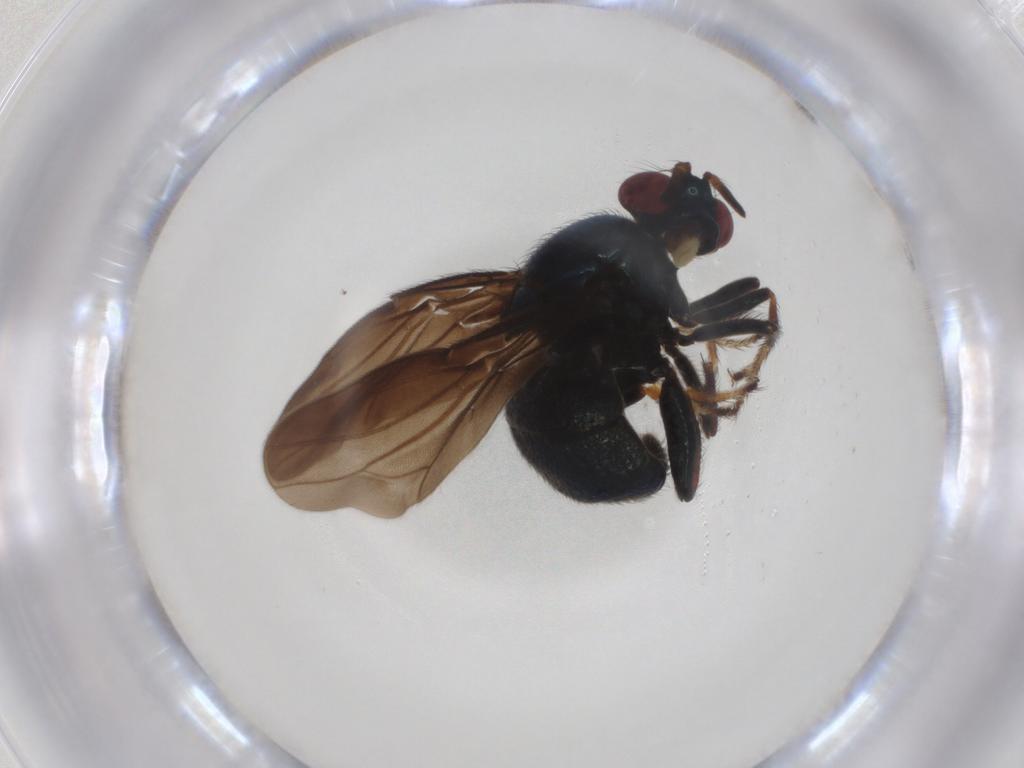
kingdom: Animalia
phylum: Arthropoda
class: Insecta
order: Diptera
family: Ephydridae
